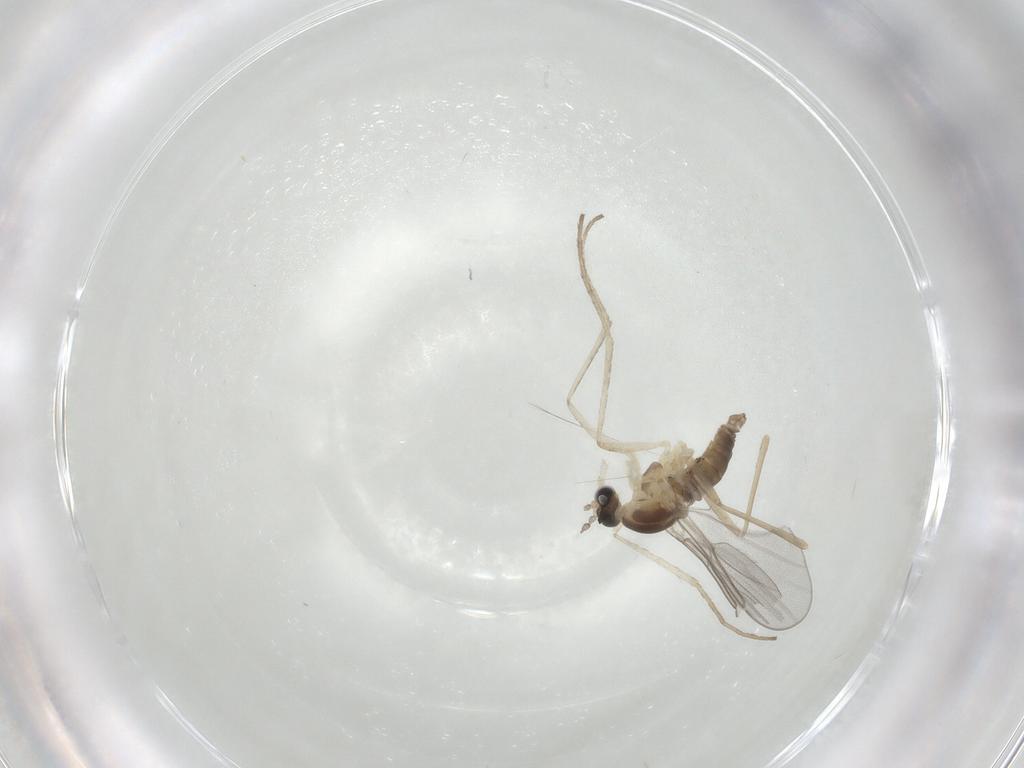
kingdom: Animalia
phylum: Arthropoda
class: Insecta
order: Diptera
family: Cecidomyiidae
